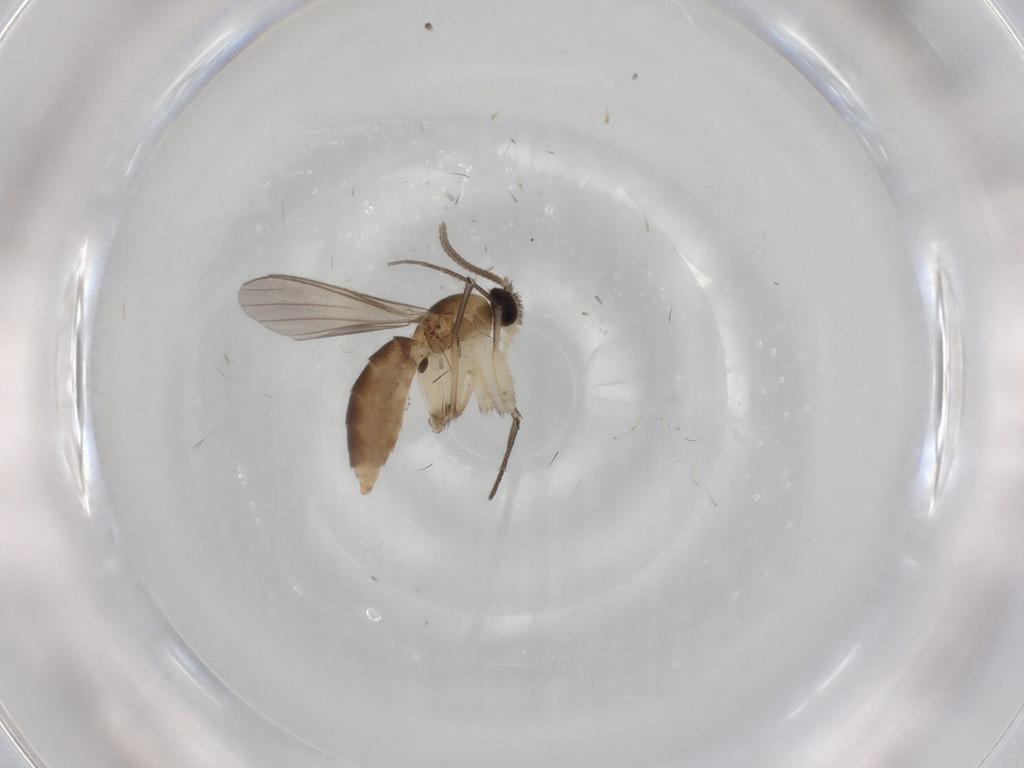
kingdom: Animalia
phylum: Arthropoda
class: Insecta
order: Diptera
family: Mycetophilidae
